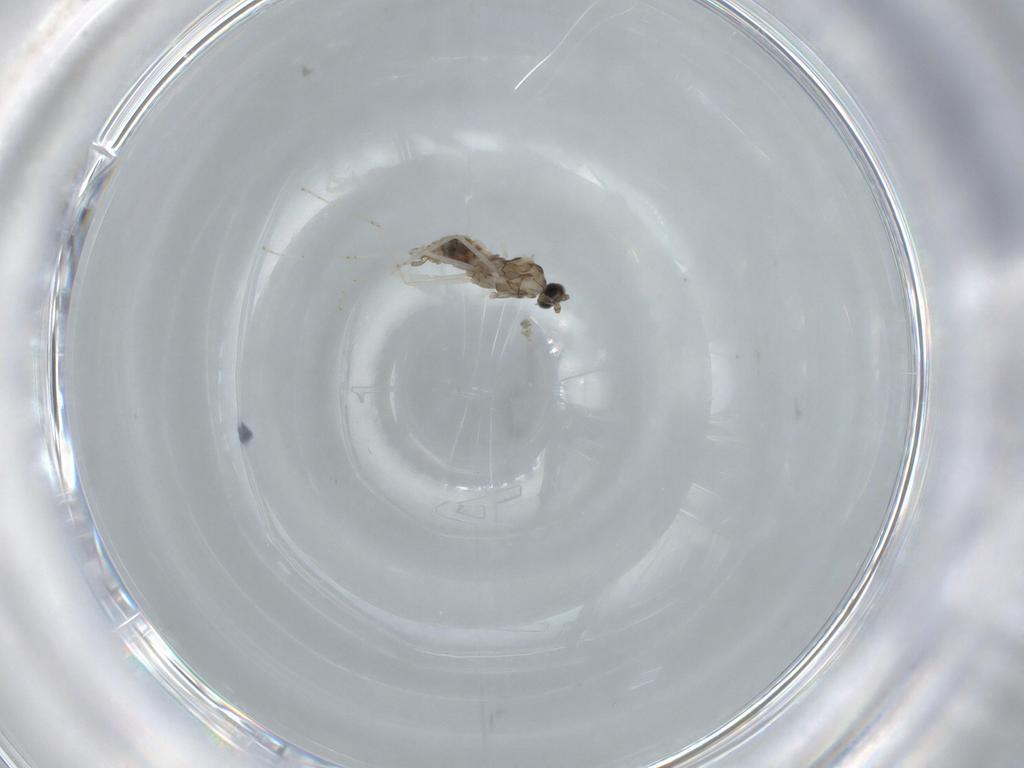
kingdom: Animalia
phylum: Arthropoda
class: Insecta
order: Diptera
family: Cecidomyiidae
